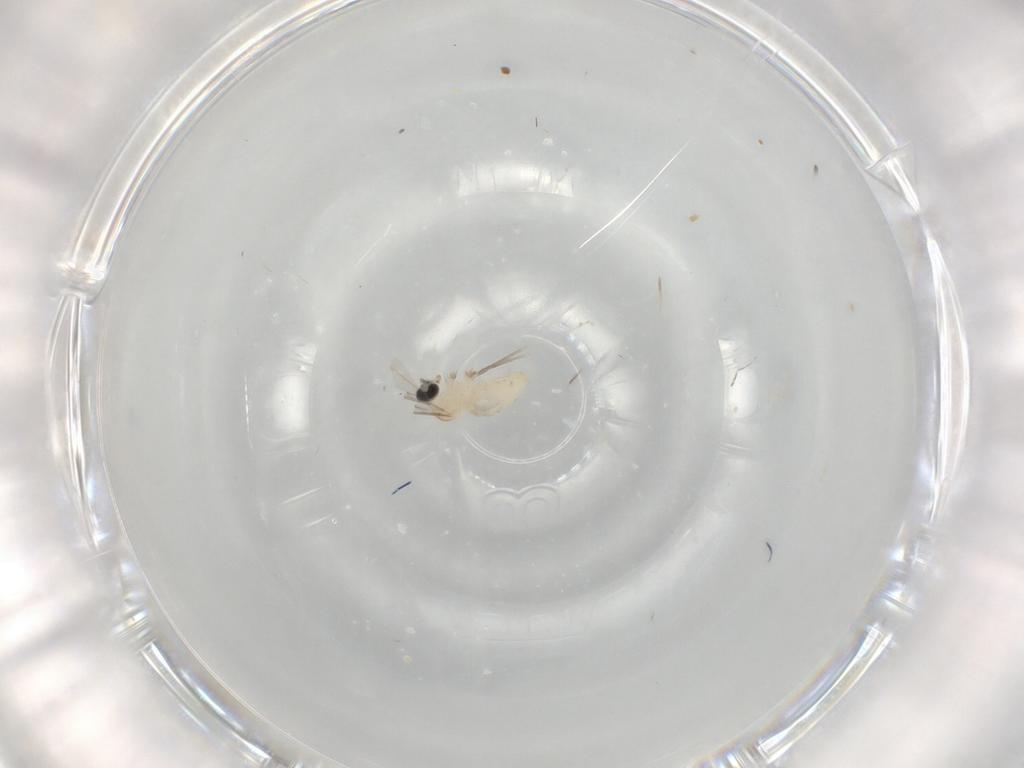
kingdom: Animalia
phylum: Arthropoda
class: Insecta
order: Diptera
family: Cecidomyiidae
